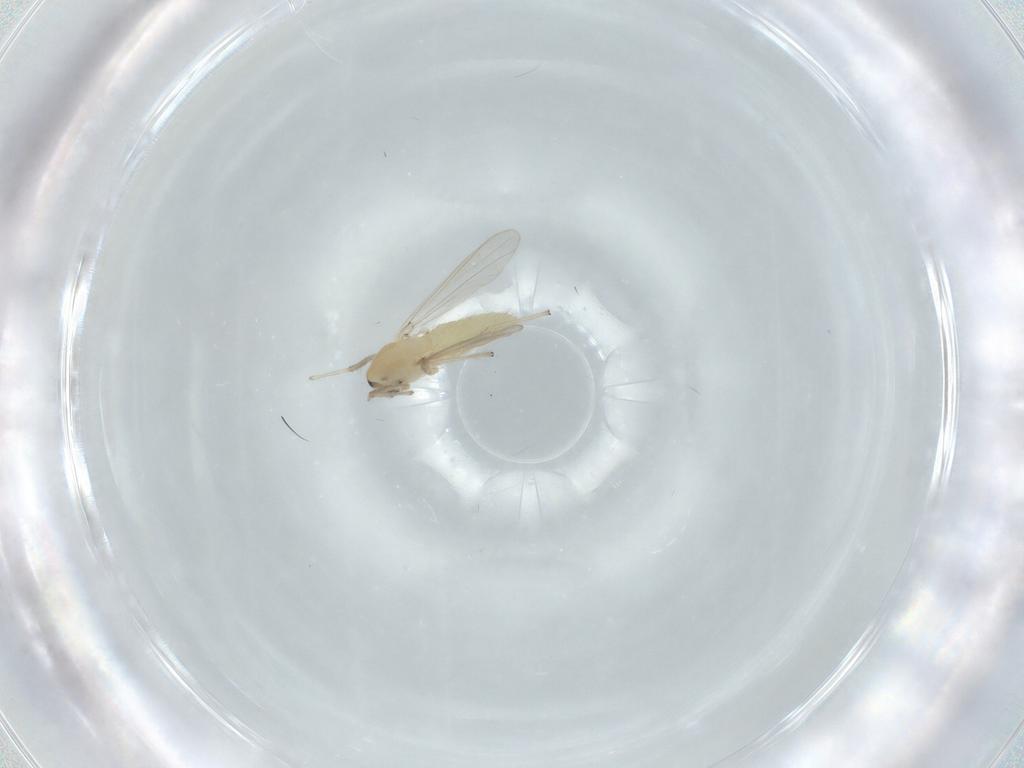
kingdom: Animalia
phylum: Arthropoda
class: Insecta
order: Diptera
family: Chironomidae
